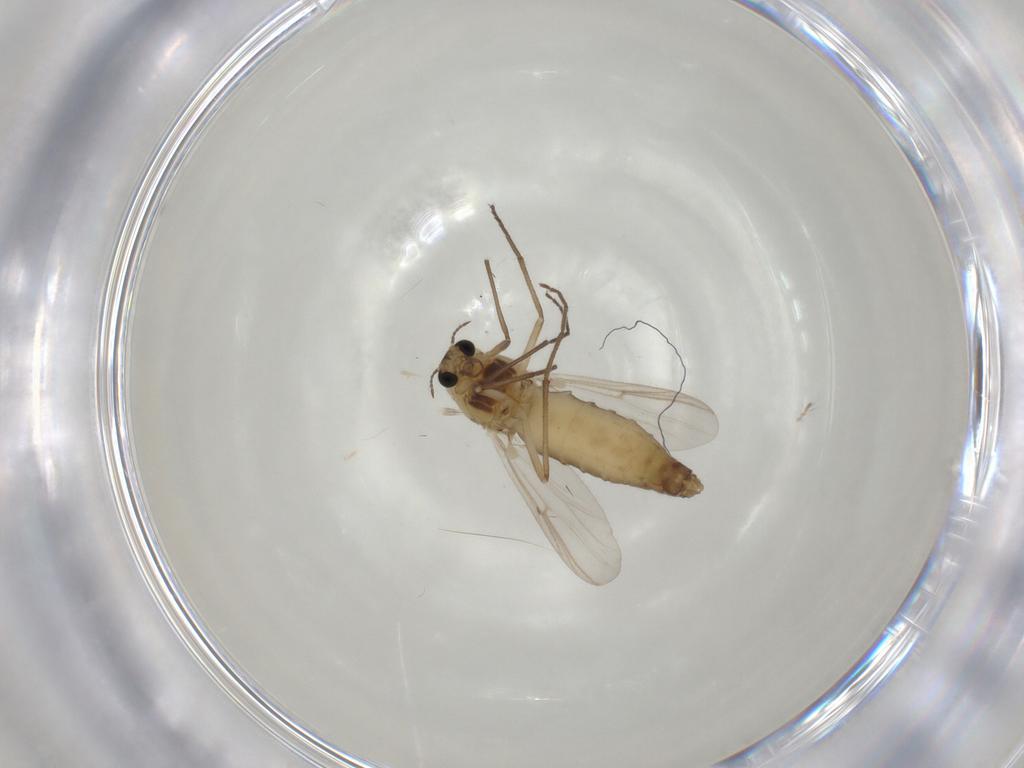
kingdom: Animalia
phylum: Arthropoda
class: Insecta
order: Diptera
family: Chironomidae
